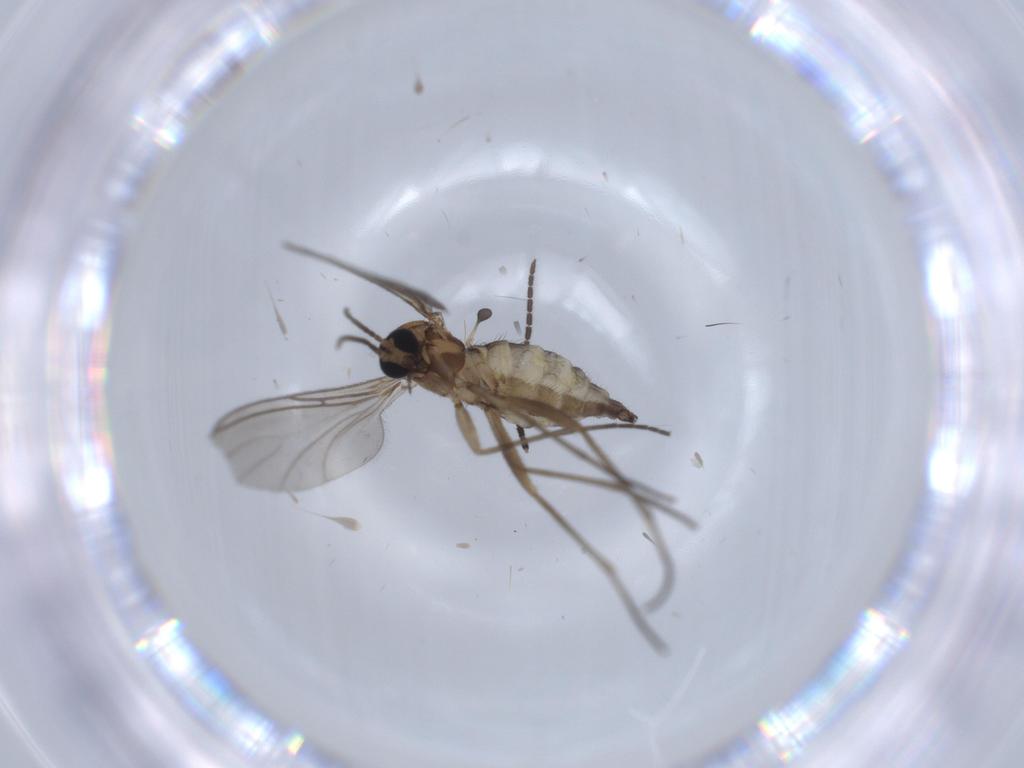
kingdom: Animalia
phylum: Arthropoda
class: Insecta
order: Diptera
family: Sciaridae
